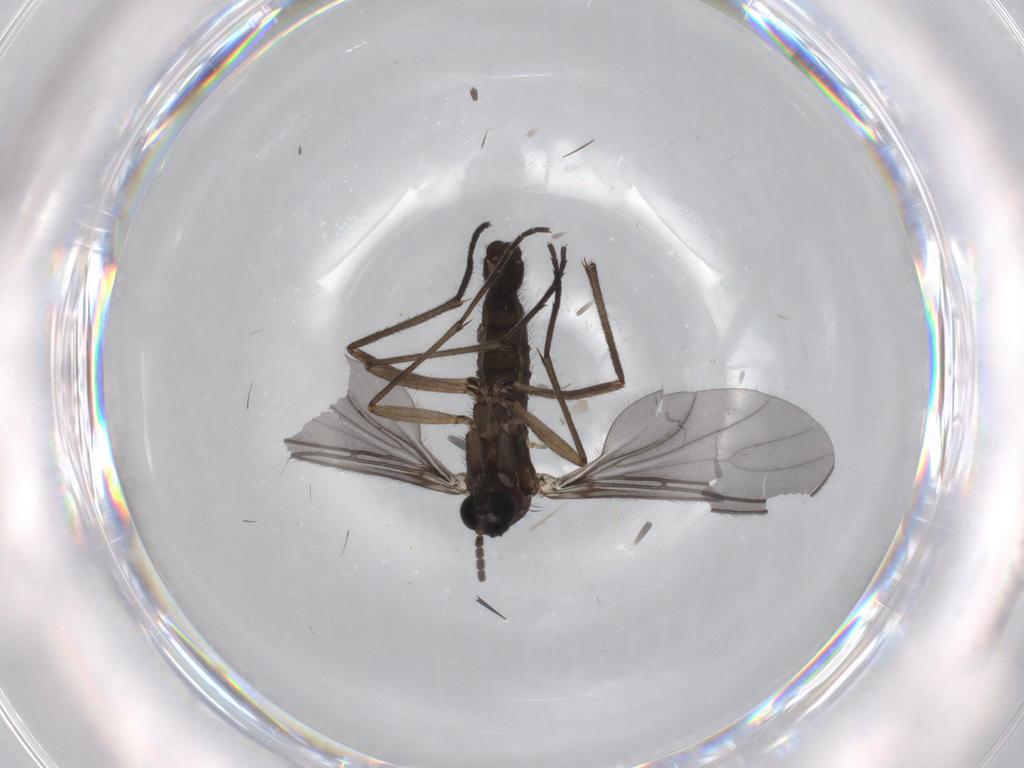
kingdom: Animalia
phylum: Arthropoda
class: Insecta
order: Diptera
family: Sciaridae
